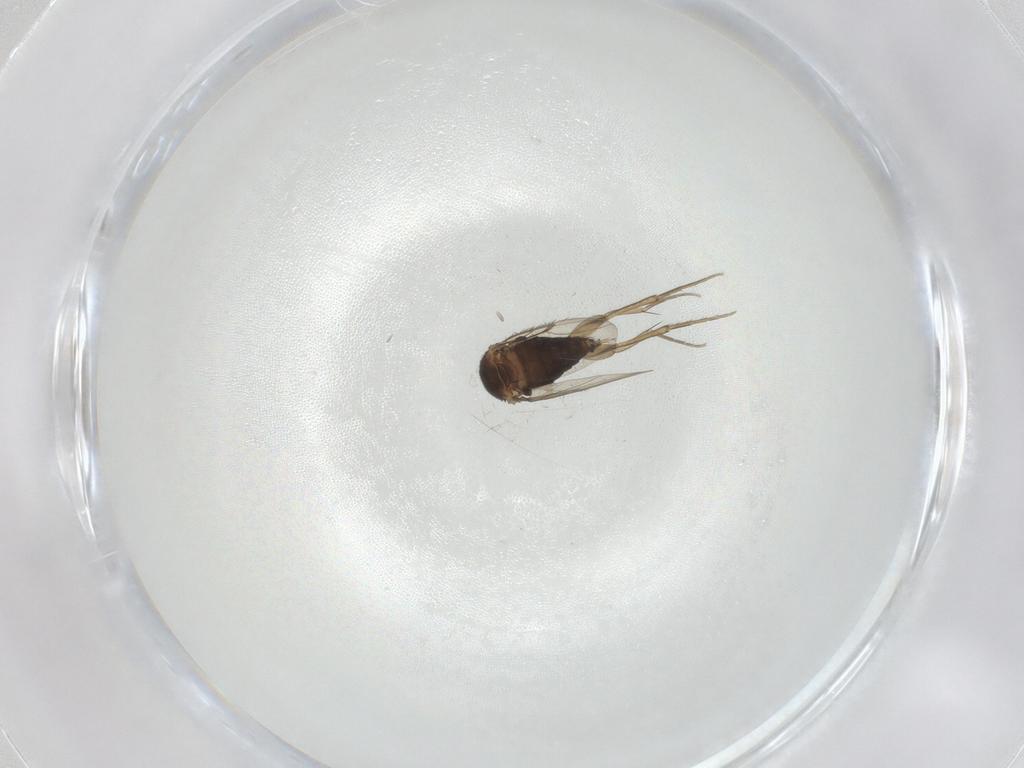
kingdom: Animalia
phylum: Arthropoda
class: Insecta
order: Diptera
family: Phoridae
